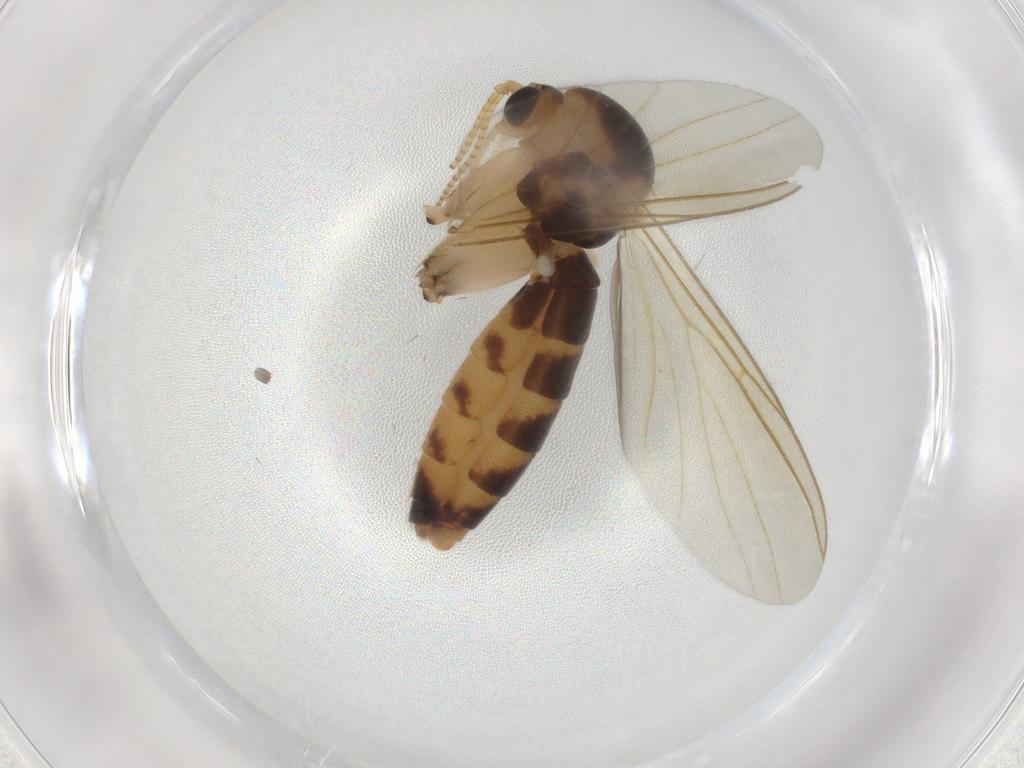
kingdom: Animalia
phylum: Arthropoda
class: Insecta
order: Diptera
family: Mycetophilidae
